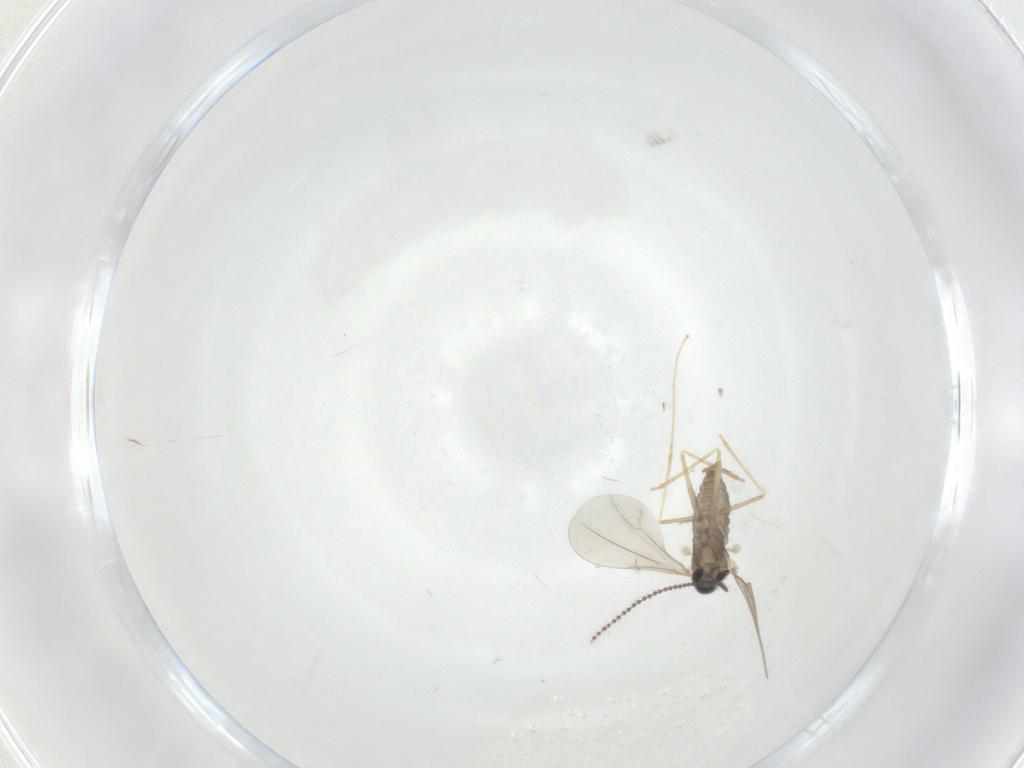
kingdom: Animalia
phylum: Arthropoda
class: Insecta
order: Diptera
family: Cecidomyiidae
